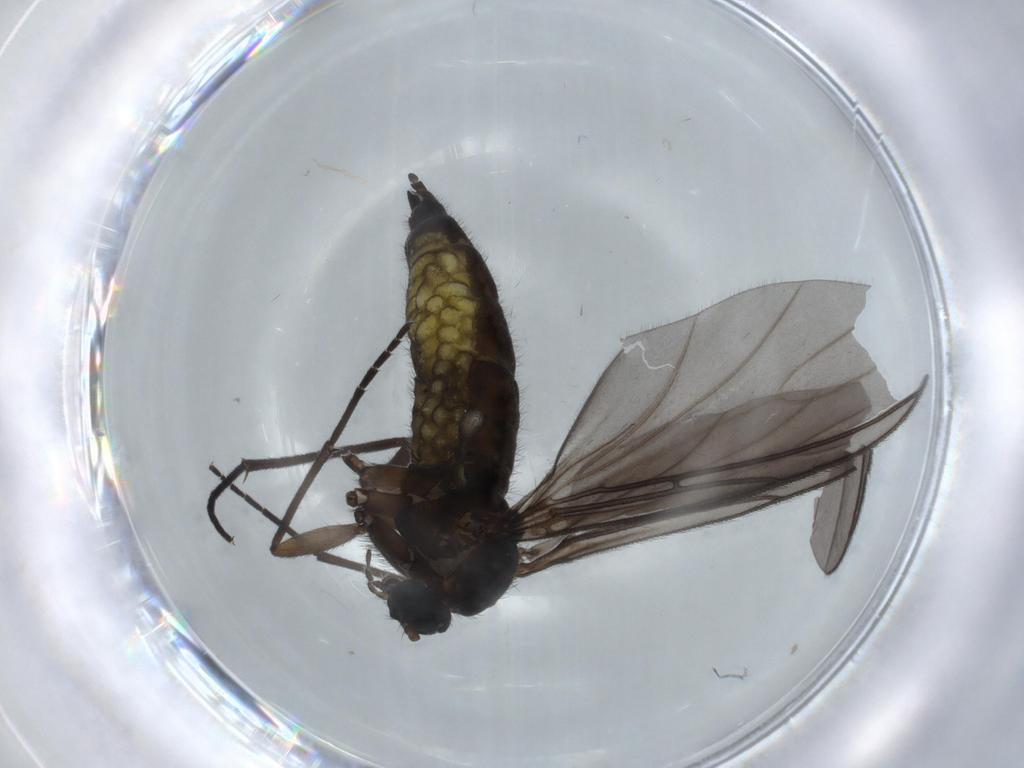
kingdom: Animalia
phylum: Arthropoda
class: Insecta
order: Diptera
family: Sciaridae
